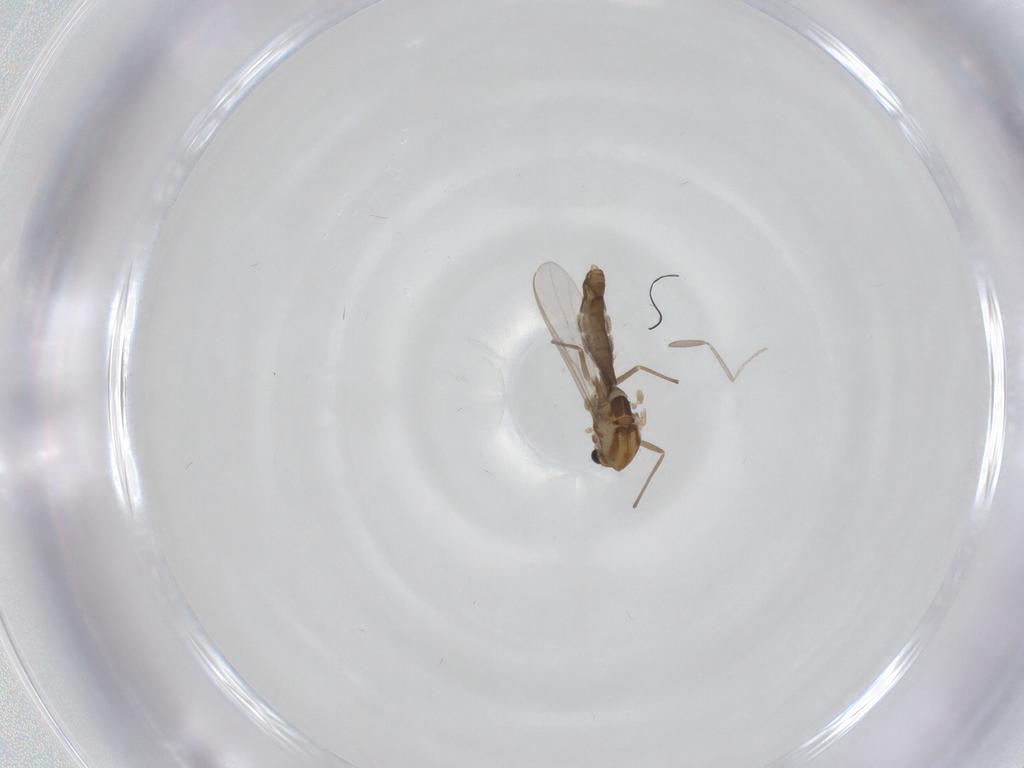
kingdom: Animalia
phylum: Arthropoda
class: Insecta
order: Diptera
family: Chironomidae
